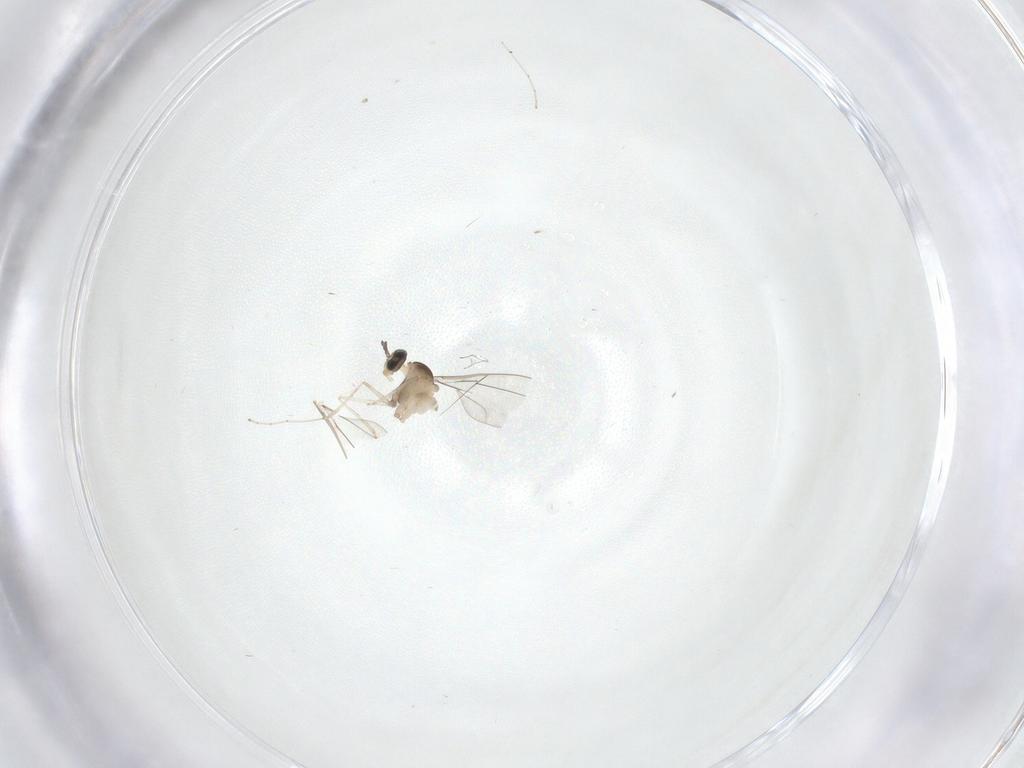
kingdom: Animalia
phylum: Arthropoda
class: Insecta
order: Diptera
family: Cecidomyiidae
